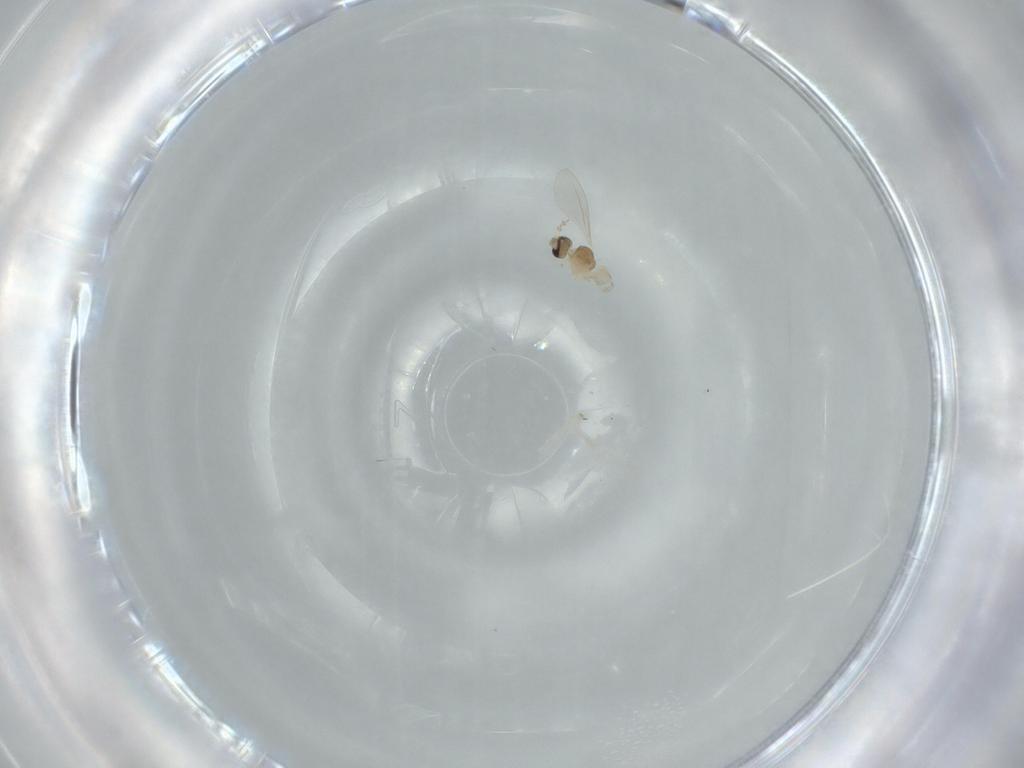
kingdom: Animalia
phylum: Arthropoda
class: Insecta
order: Diptera
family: Cecidomyiidae
